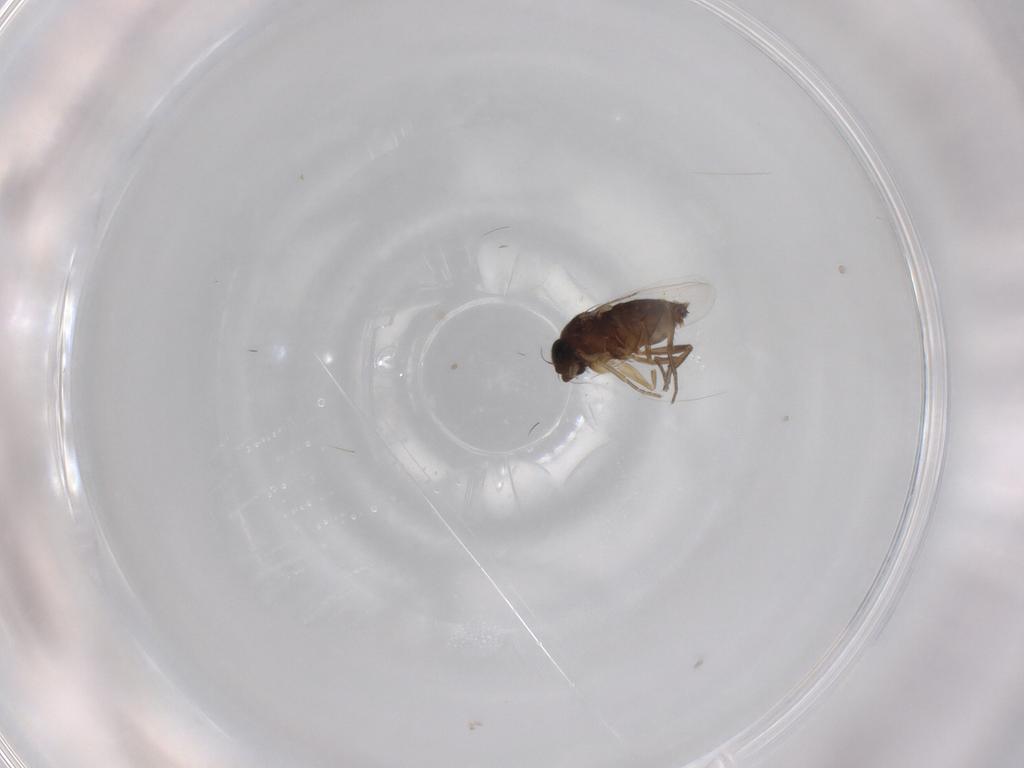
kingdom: Animalia
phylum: Arthropoda
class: Insecta
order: Diptera
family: Phoridae
